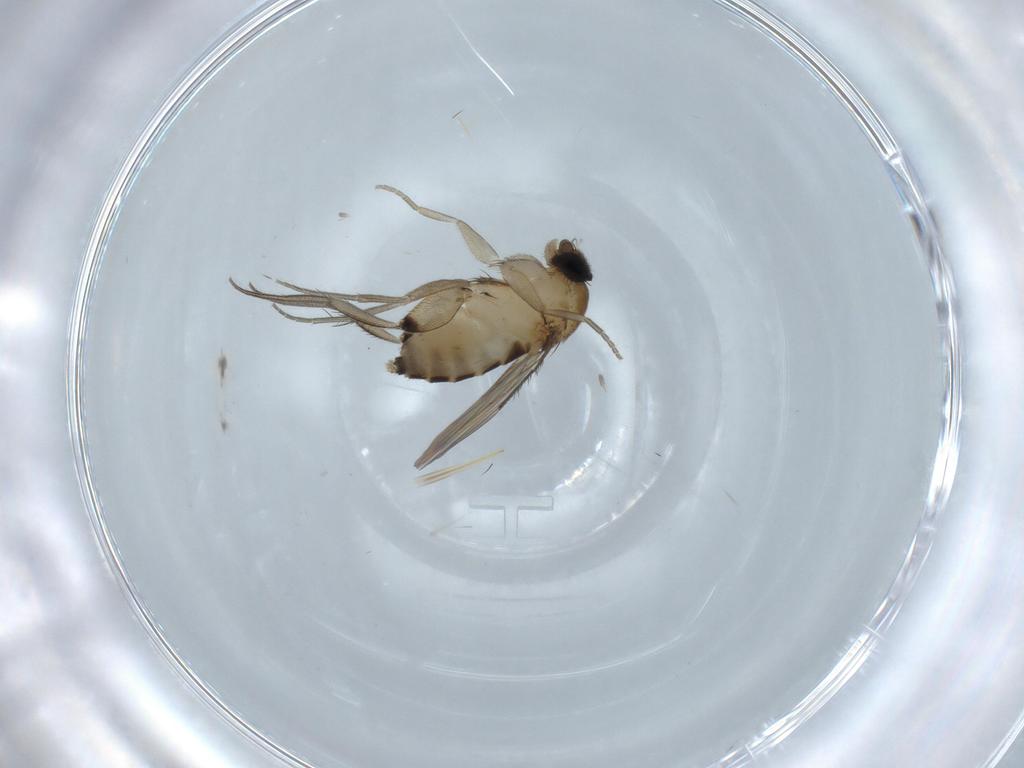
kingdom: Animalia
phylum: Arthropoda
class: Insecta
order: Diptera
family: Phoridae
